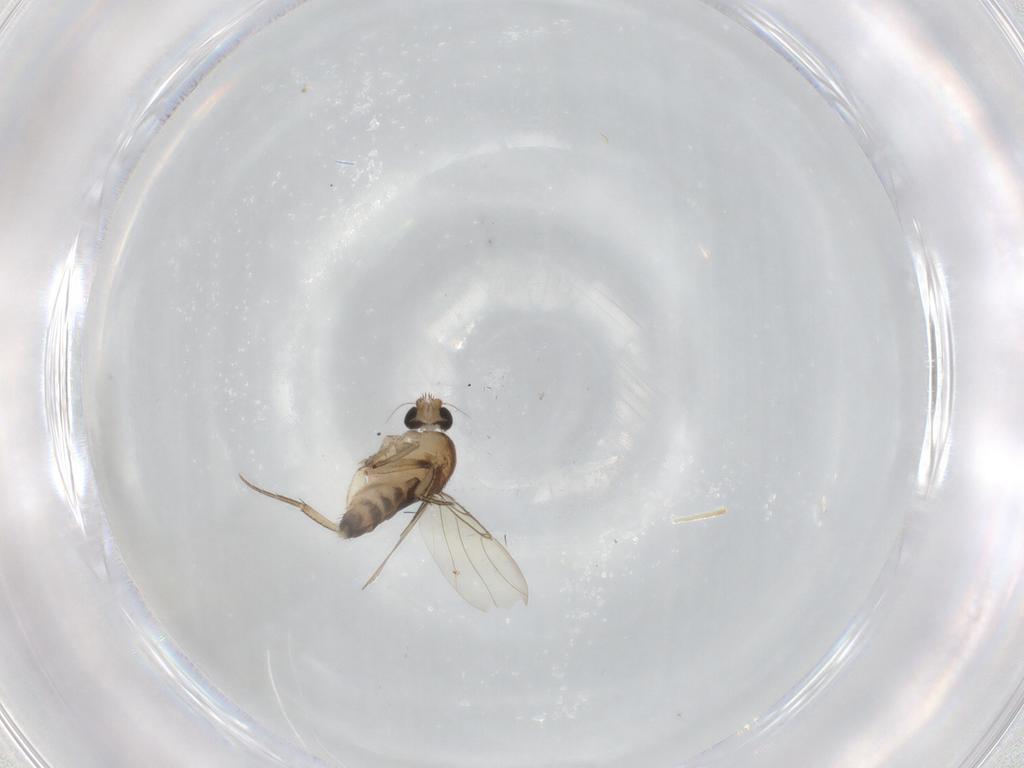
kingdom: Animalia
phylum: Arthropoda
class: Insecta
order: Diptera
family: Phoridae
